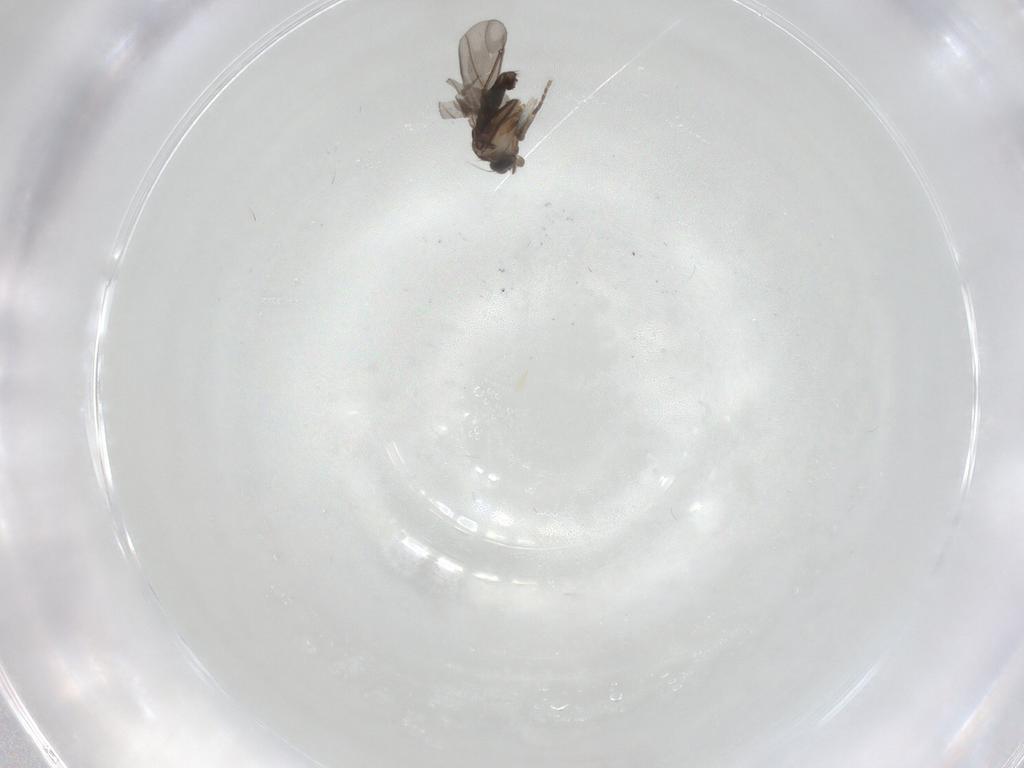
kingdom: Animalia
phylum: Arthropoda
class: Insecta
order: Diptera
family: Phoridae
